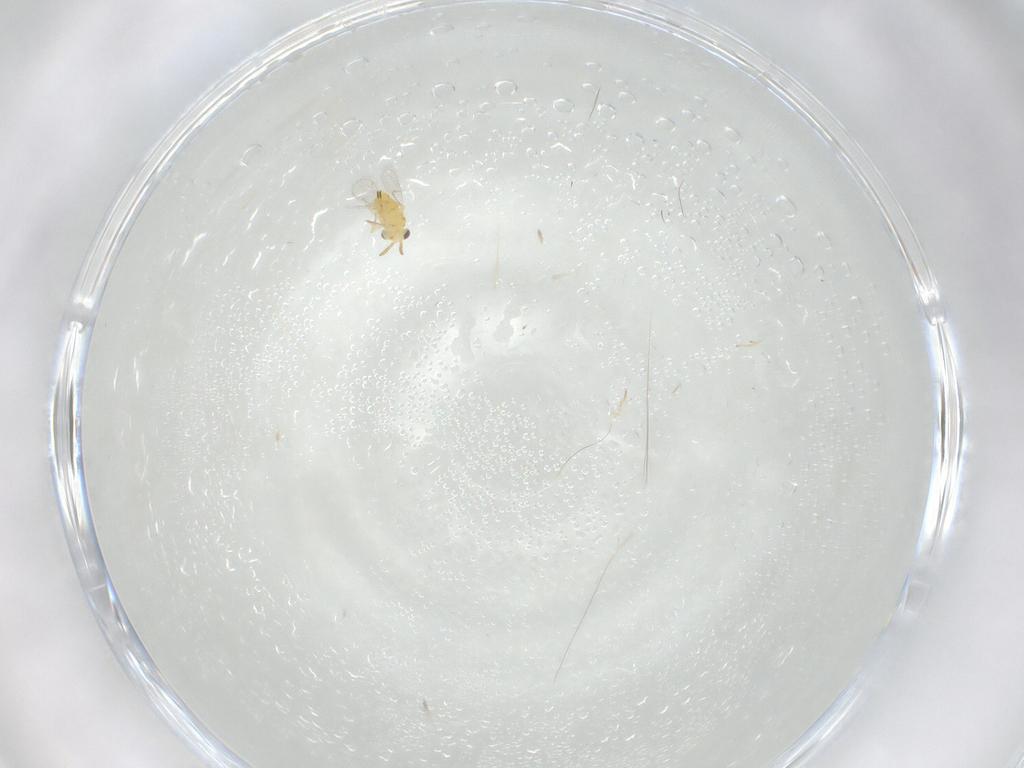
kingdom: Animalia
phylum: Arthropoda
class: Insecta
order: Hymenoptera
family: Aphelinidae
